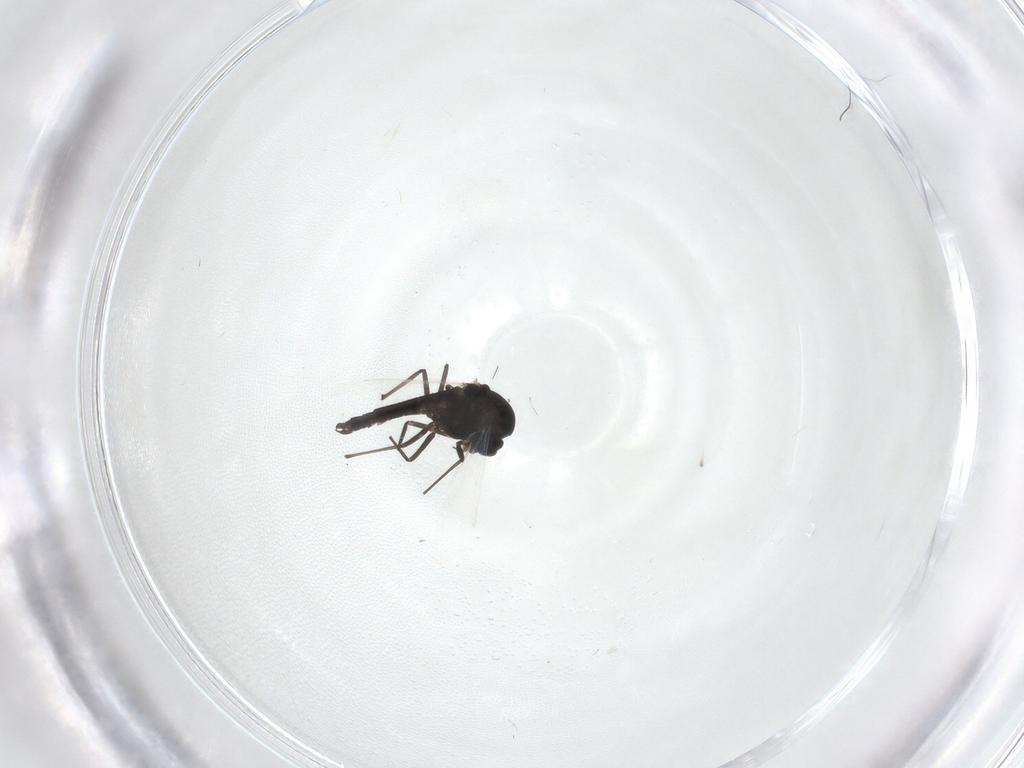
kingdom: Animalia
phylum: Arthropoda
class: Insecta
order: Diptera
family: Chironomidae
